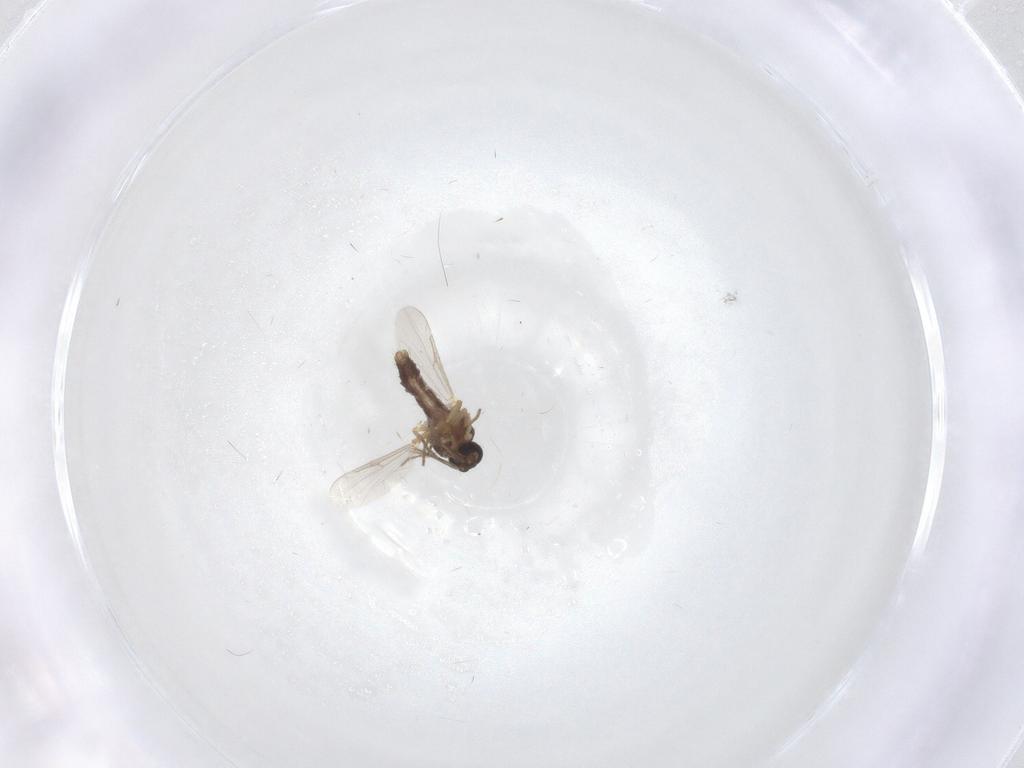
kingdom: Animalia
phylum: Arthropoda
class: Insecta
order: Diptera
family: Ceratopogonidae
